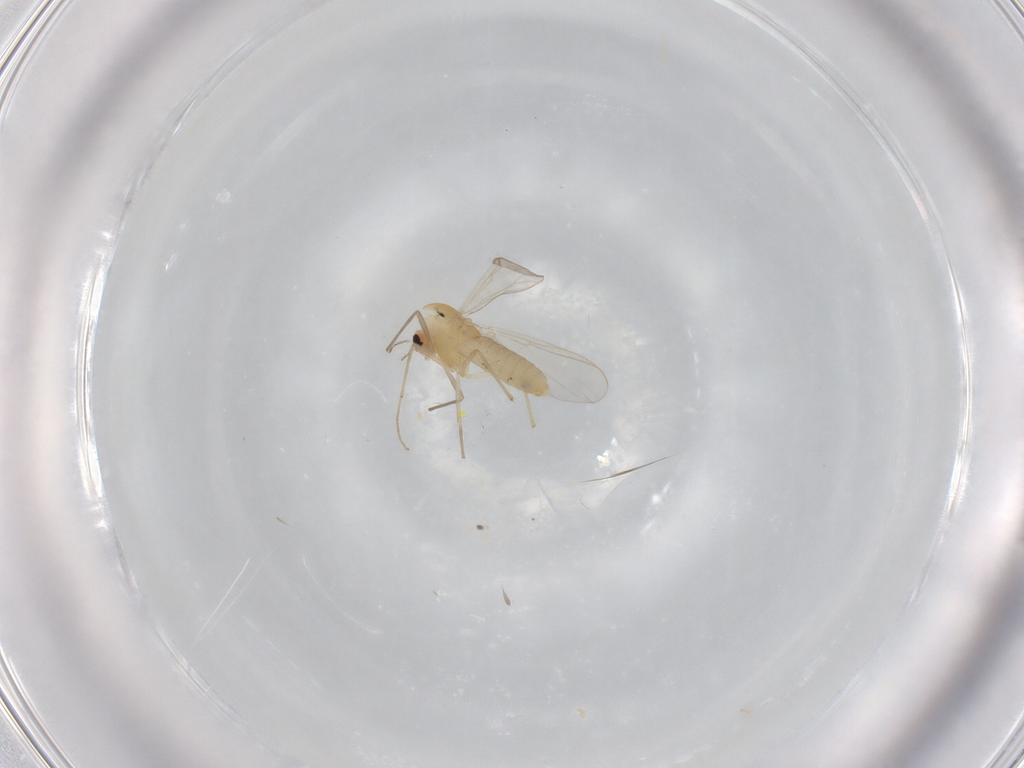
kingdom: Animalia
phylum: Arthropoda
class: Insecta
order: Diptera
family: Chironomidae
